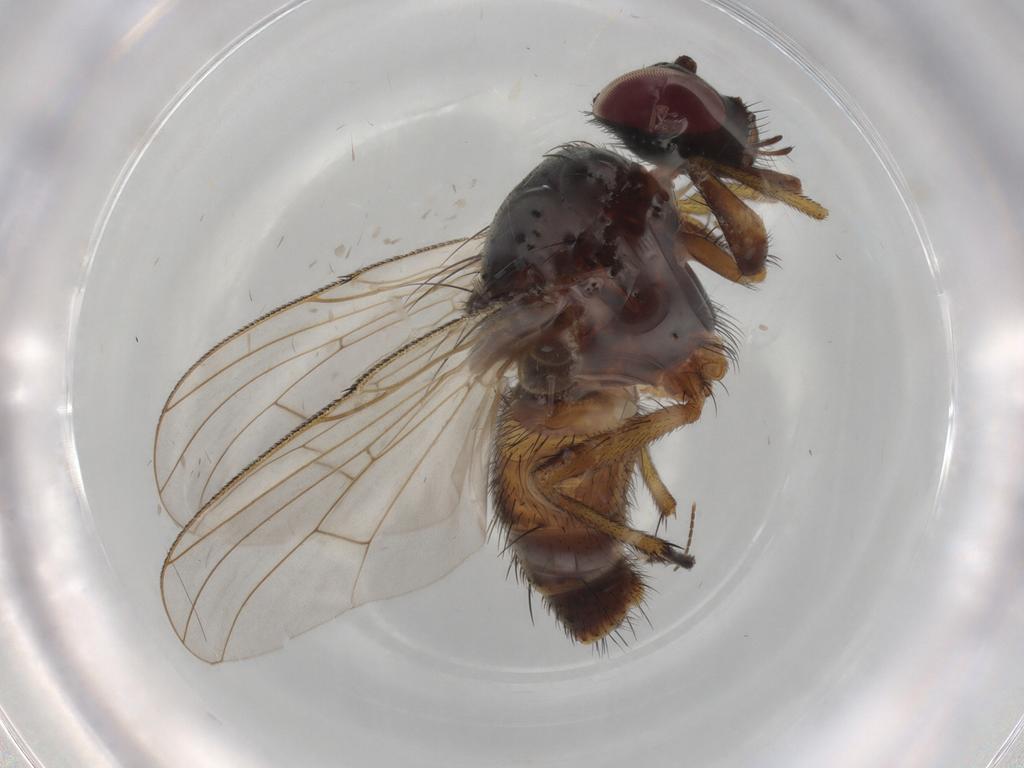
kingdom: Animalia
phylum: Arthropoda
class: Insecta
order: Diptera
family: Muscidae
